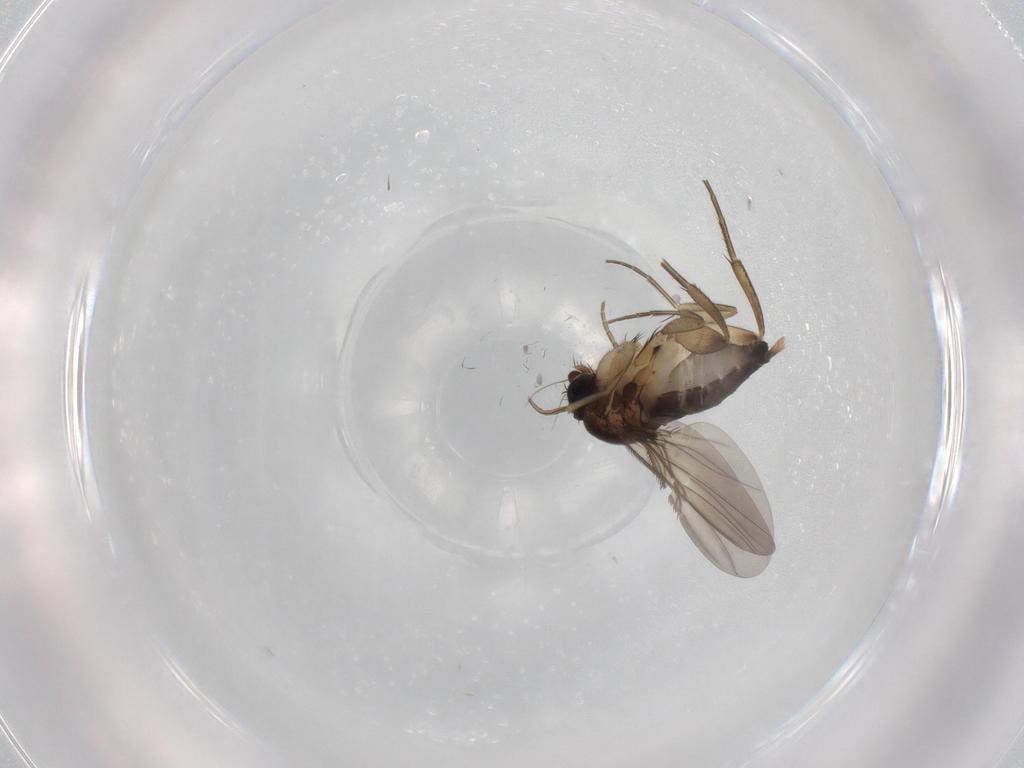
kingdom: Animalia
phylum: Arthropoda
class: Insecta
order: Diptera
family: Phoridae
